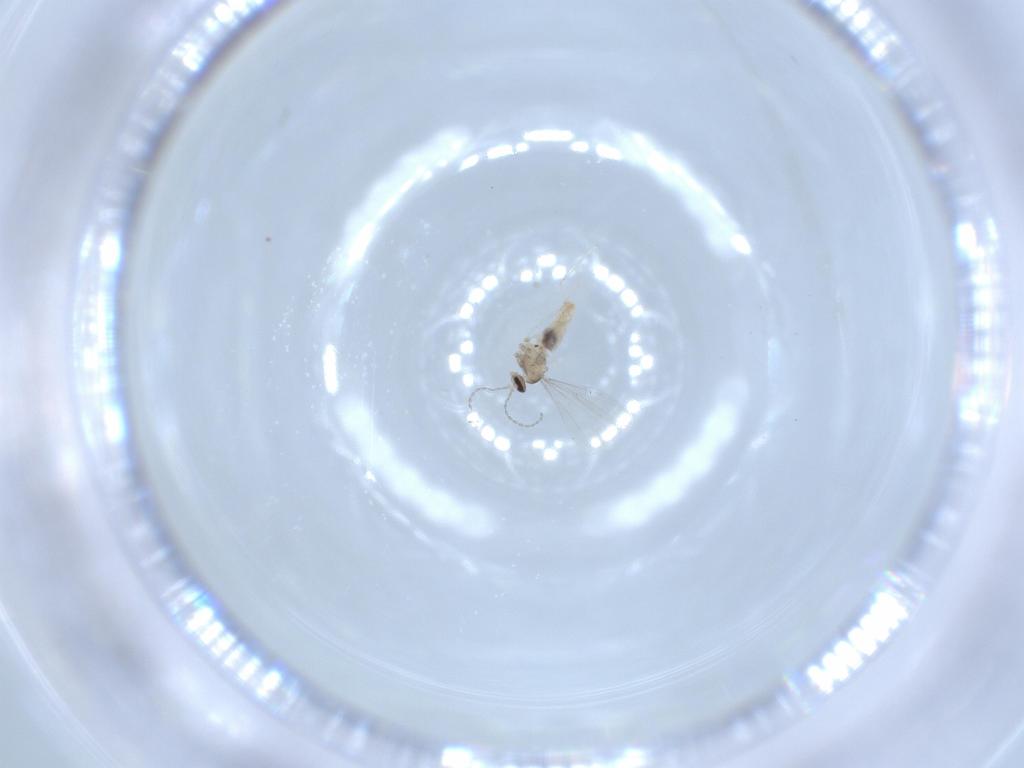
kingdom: Animalia
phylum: Arthropoda
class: Insecta
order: Diptera
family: Cecidomyiidae
